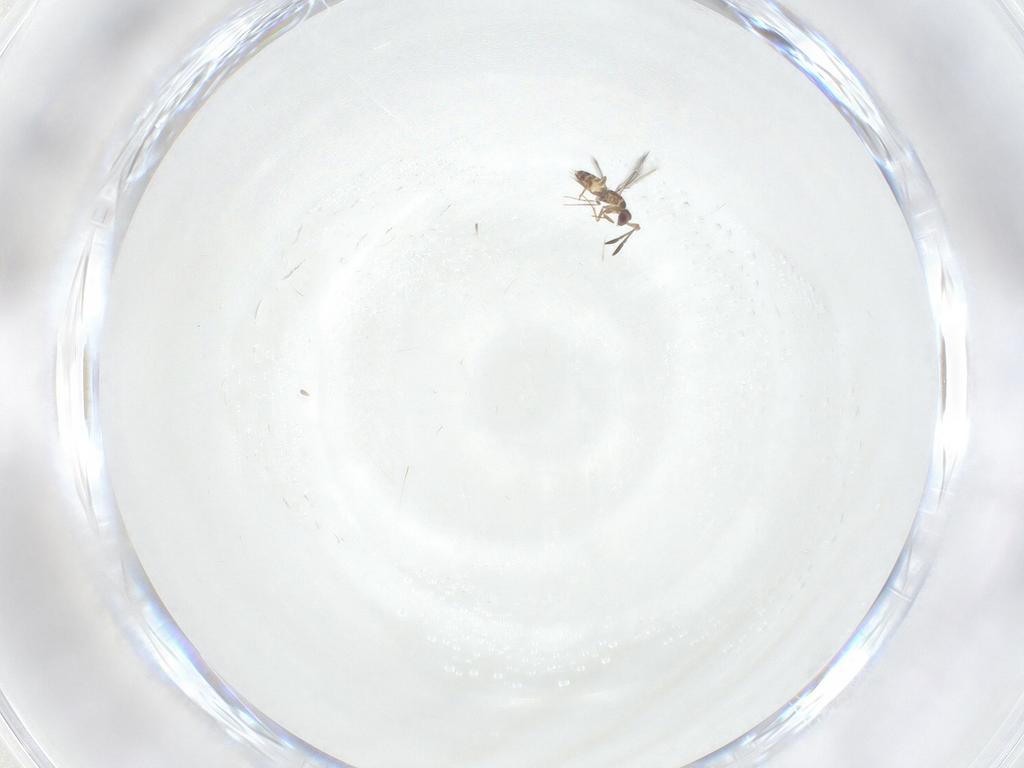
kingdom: Animalia
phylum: Arthropoda
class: Insecta
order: Hymenoptera
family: Mymaridae
